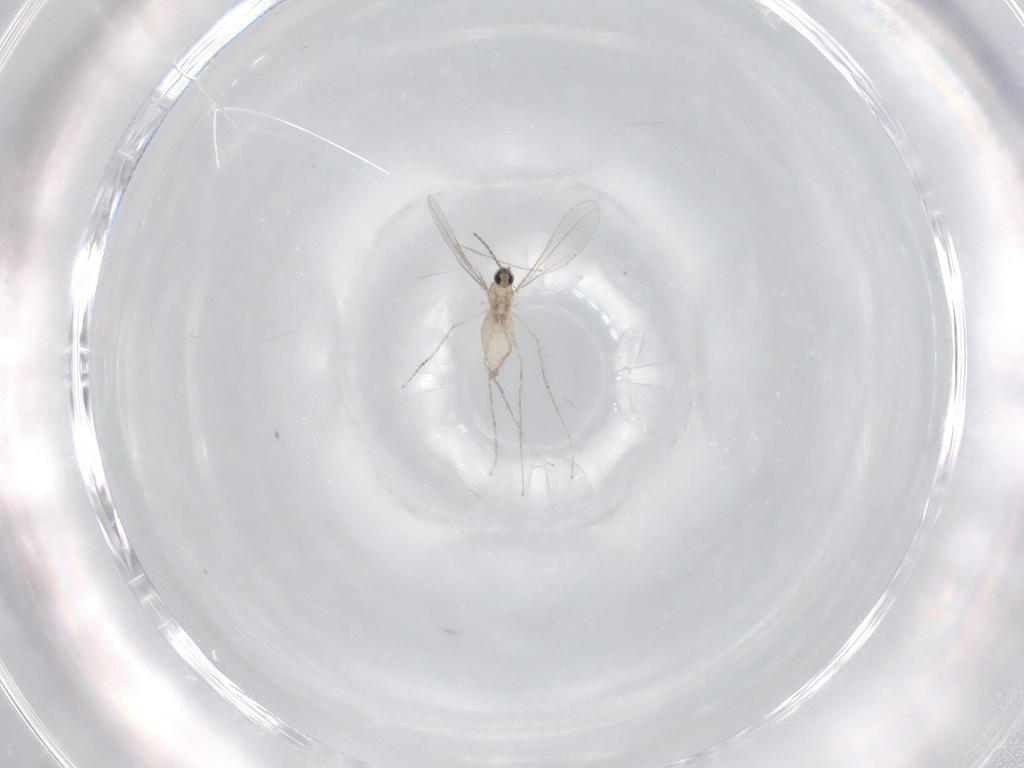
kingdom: Animalia
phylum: Arthropoda
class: Insecta
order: Diptera
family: Cecidomyiidae
